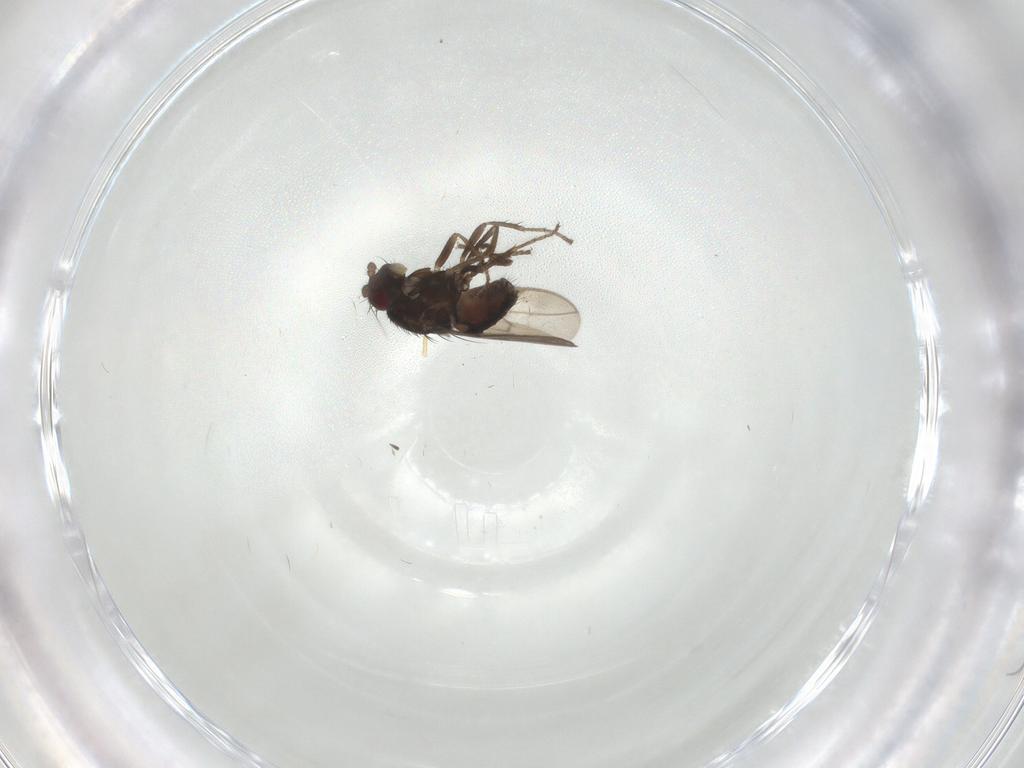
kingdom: Animalia
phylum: Arthropoda
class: Insecta
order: Diptera
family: Sphaeroceridae
